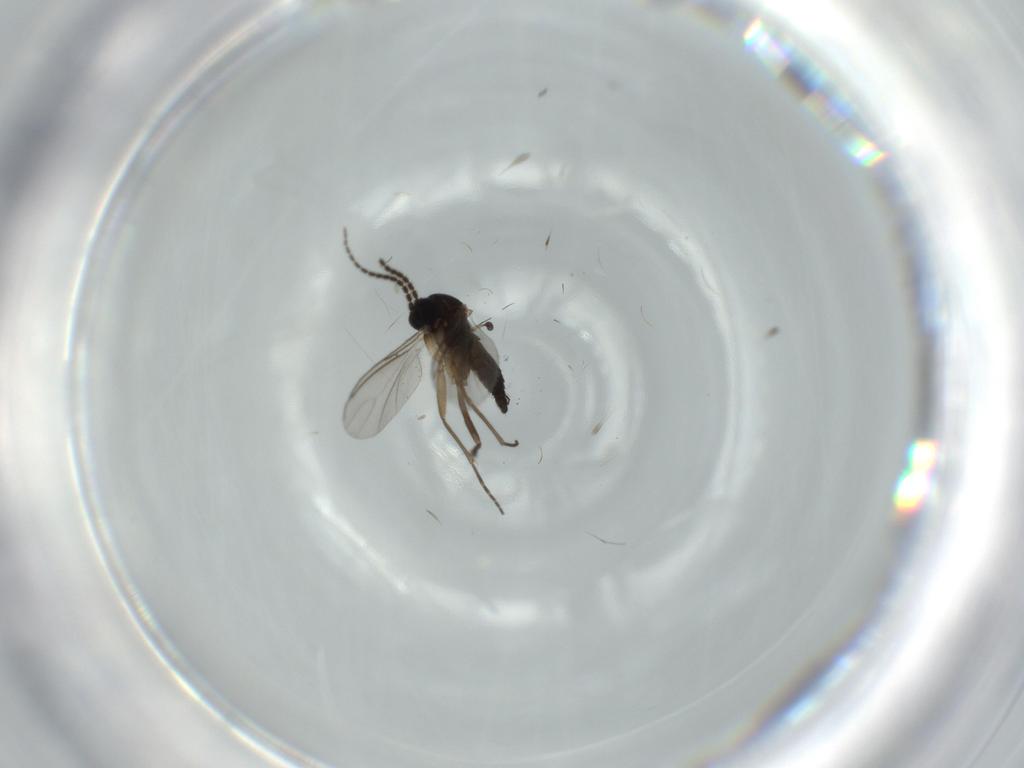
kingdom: Animalia
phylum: Arthropoda
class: Insecta
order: Diptera
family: Sciaridae
